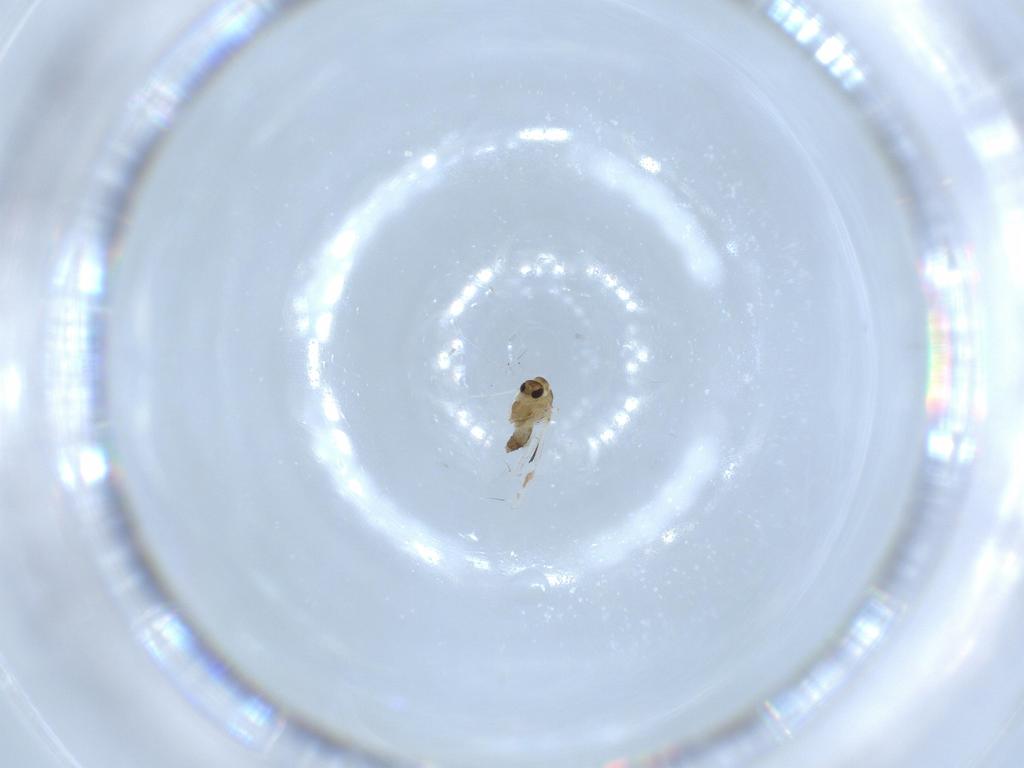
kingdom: Animalia
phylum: Arthropoda
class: Insecta
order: Diptera
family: Chironomidae
